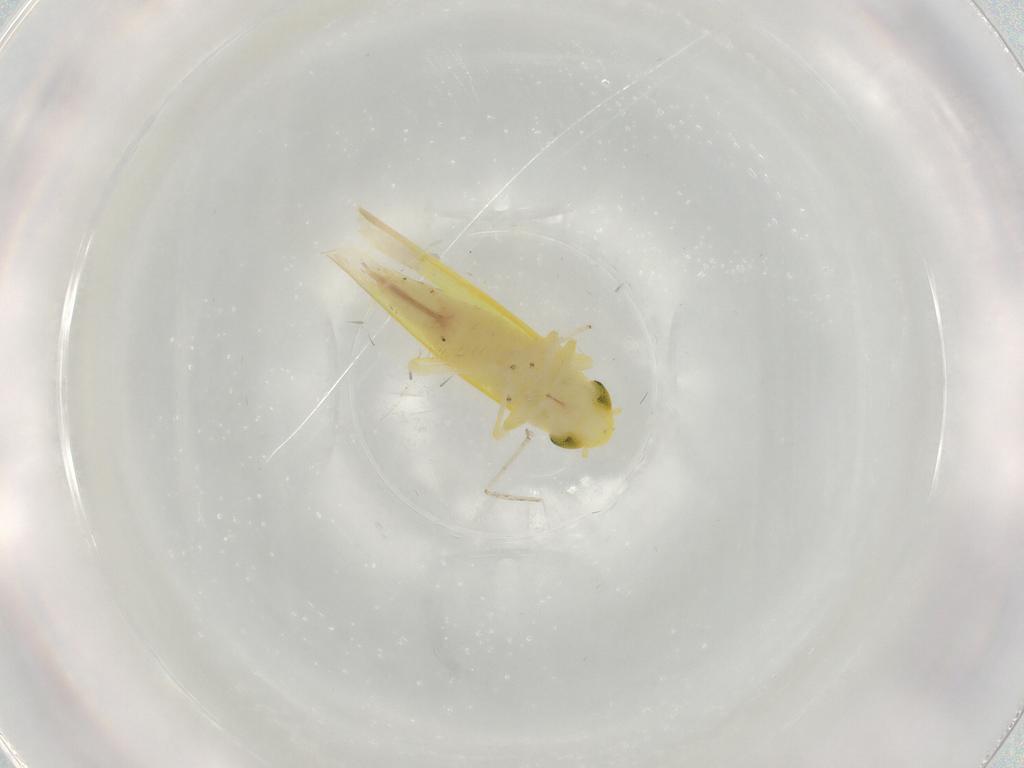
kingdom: Animalia
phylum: Arthropoda
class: Insecta
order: Hemiptera
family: Cicadellidae
